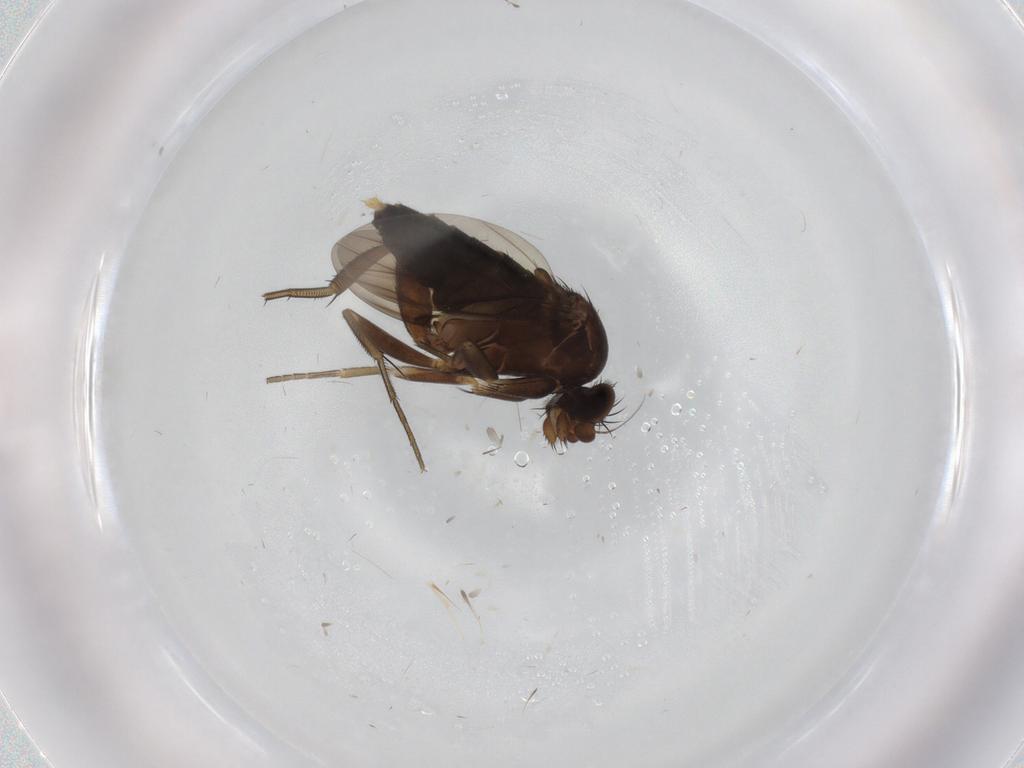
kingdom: Animalia
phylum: Arthropoda
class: Insecta
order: Diptera
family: Phoridae
